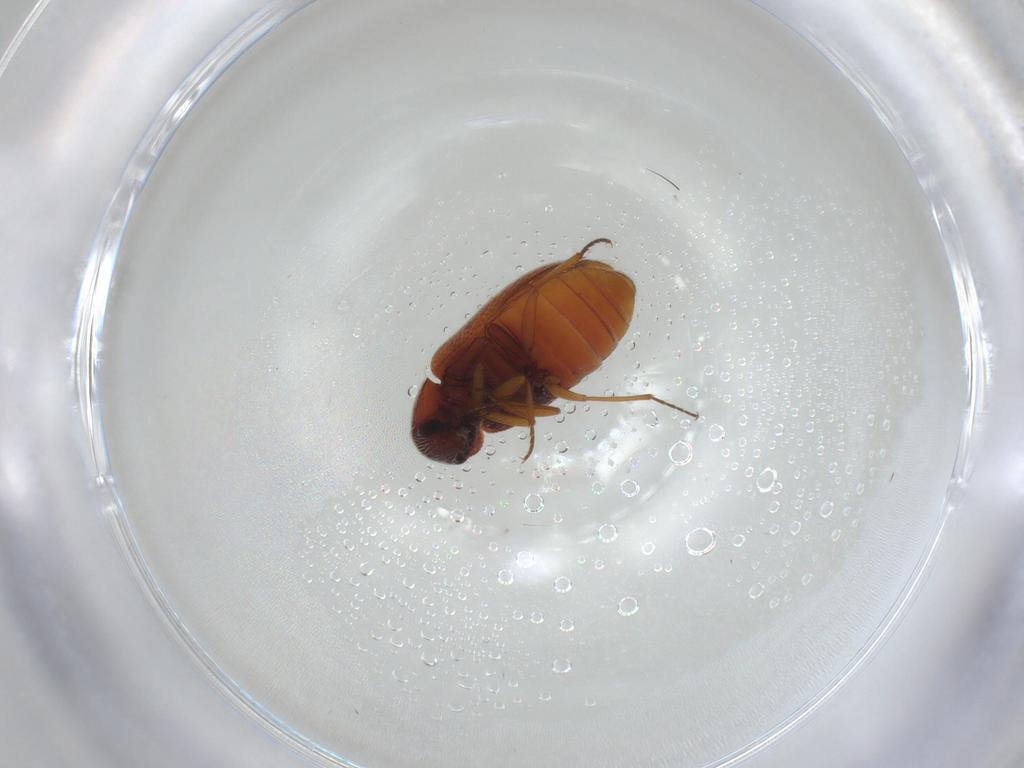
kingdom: Animalia
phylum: Arthropoda
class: Insecta
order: Coleoptera
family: Rhadalidae
